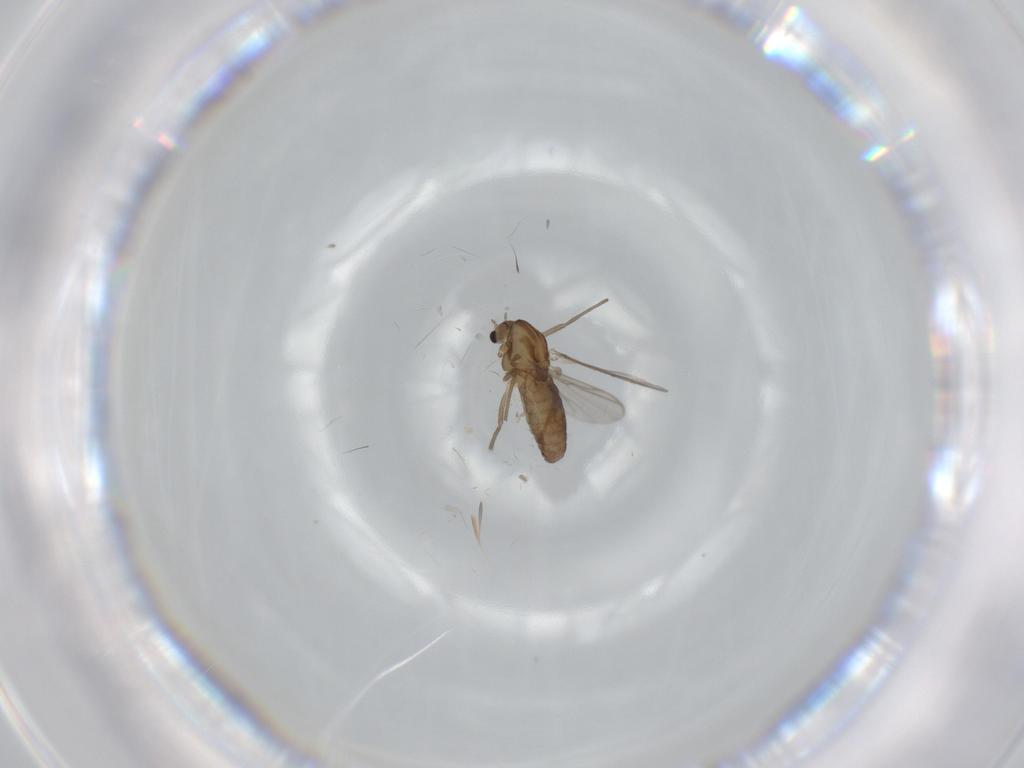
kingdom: Animalia
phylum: Arthropoda
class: Insecta
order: Diptera
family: Chironomidae
